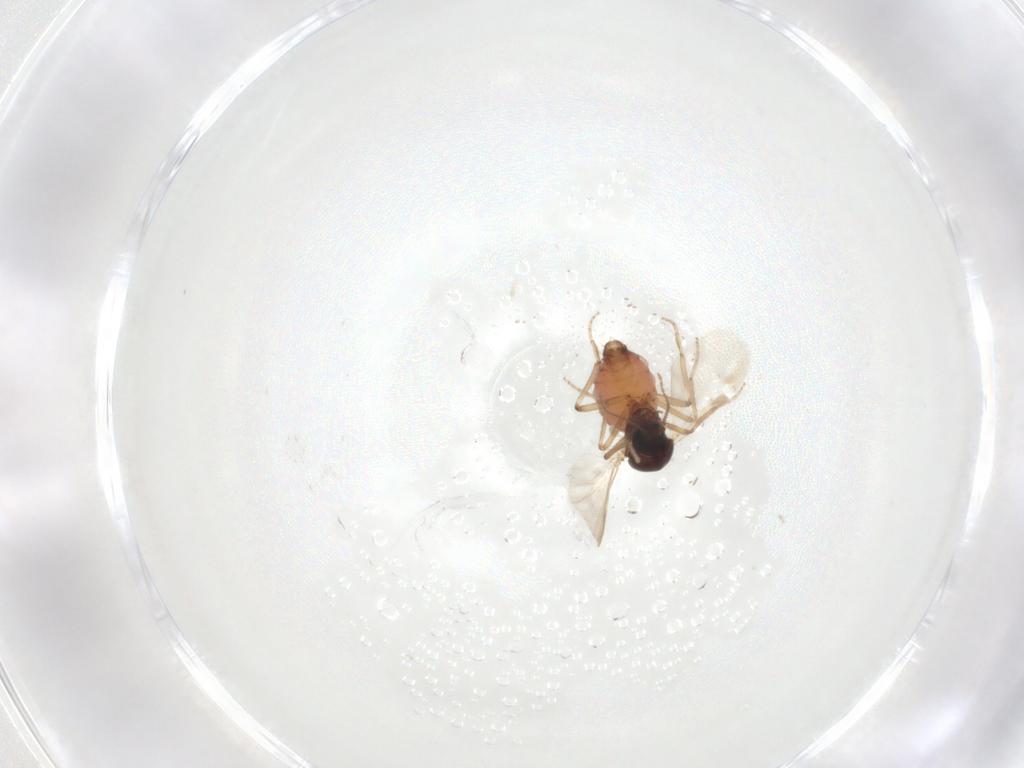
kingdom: Animalia
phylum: Arthropoda
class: Insecta
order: Diptera
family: Ceratopogonidae
